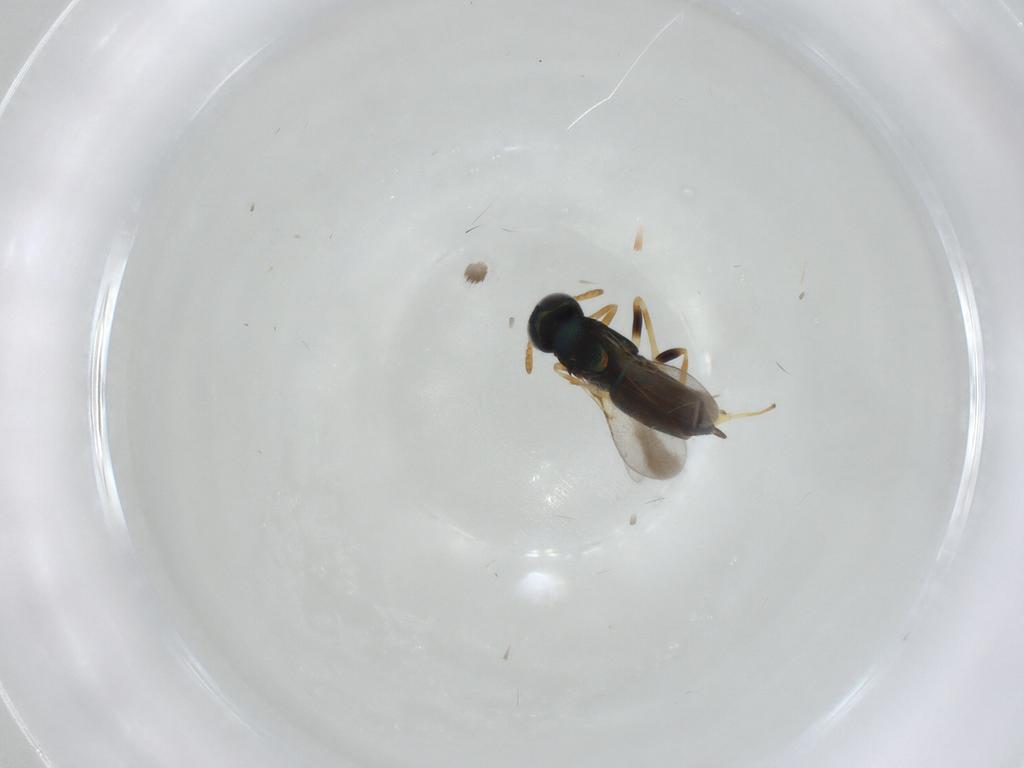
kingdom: Animalia
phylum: Arthropoda
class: Insecta
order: Hymenoptera
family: Encyrtidae
